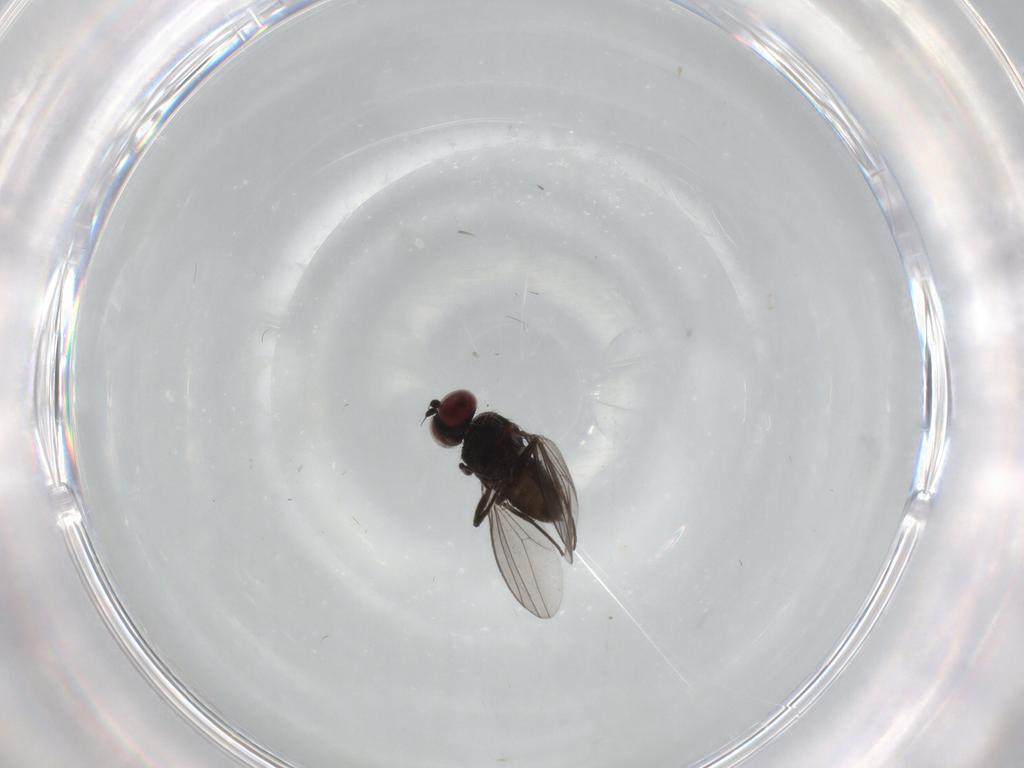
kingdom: Animalia
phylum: Arthropoda
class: Insecta
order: Diptera
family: Dolichopodidae
